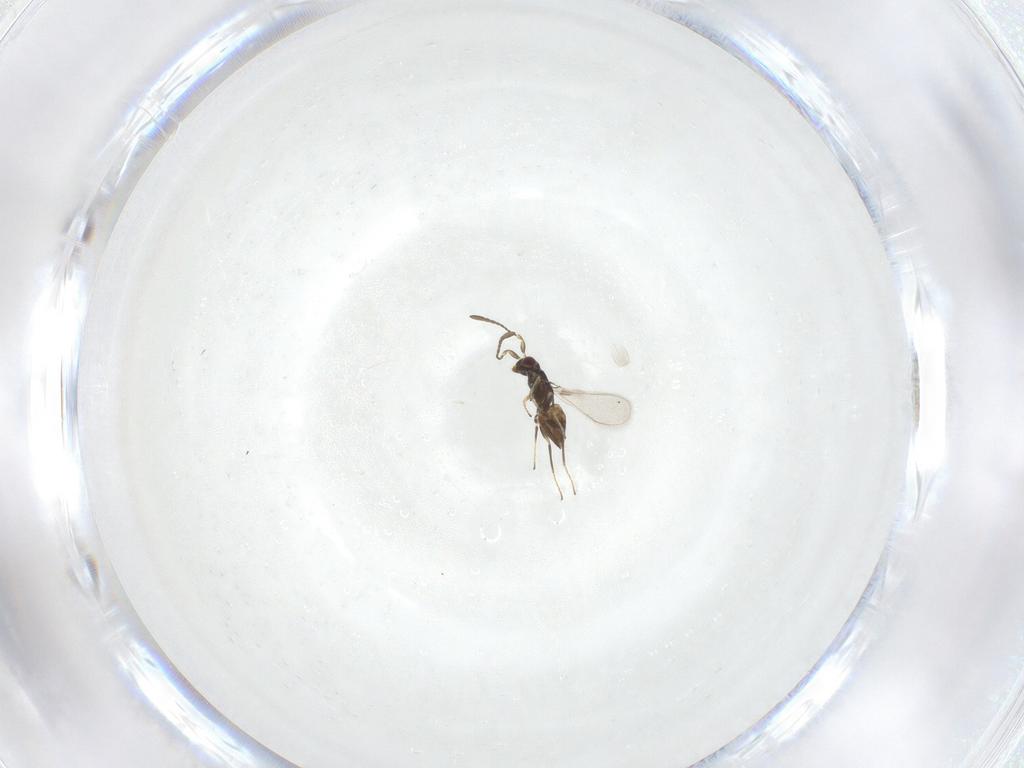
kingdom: Animalia
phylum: Arthropoda
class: Insecta
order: Hymenoptera
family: Mymaridae
